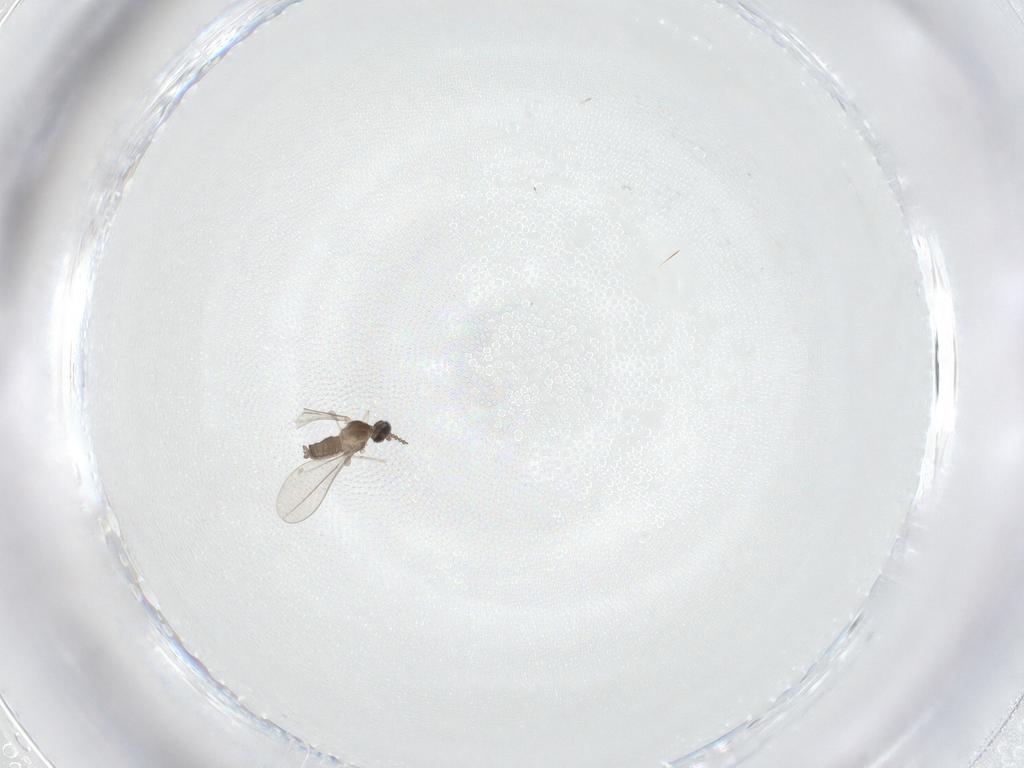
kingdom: Animalia
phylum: Arthropoda
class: Insecta
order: Diptera
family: Cecidomyiidae
